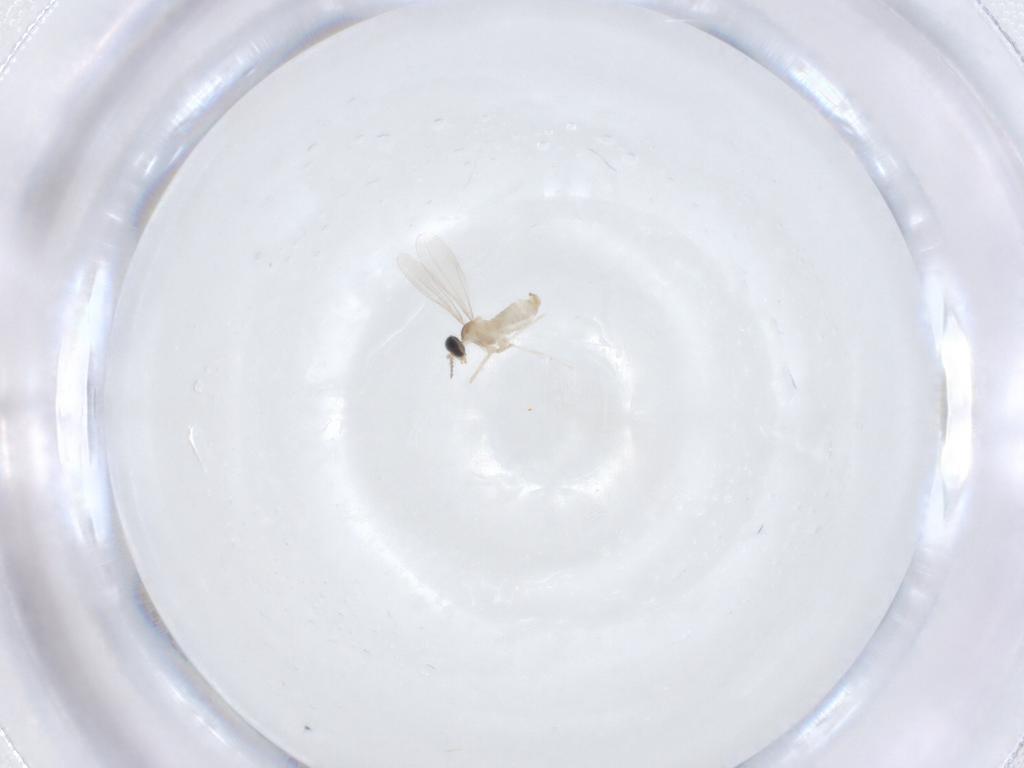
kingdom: Animalia
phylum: Arthropoda
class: Insecta
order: Diptera
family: Cecidomyiidae
